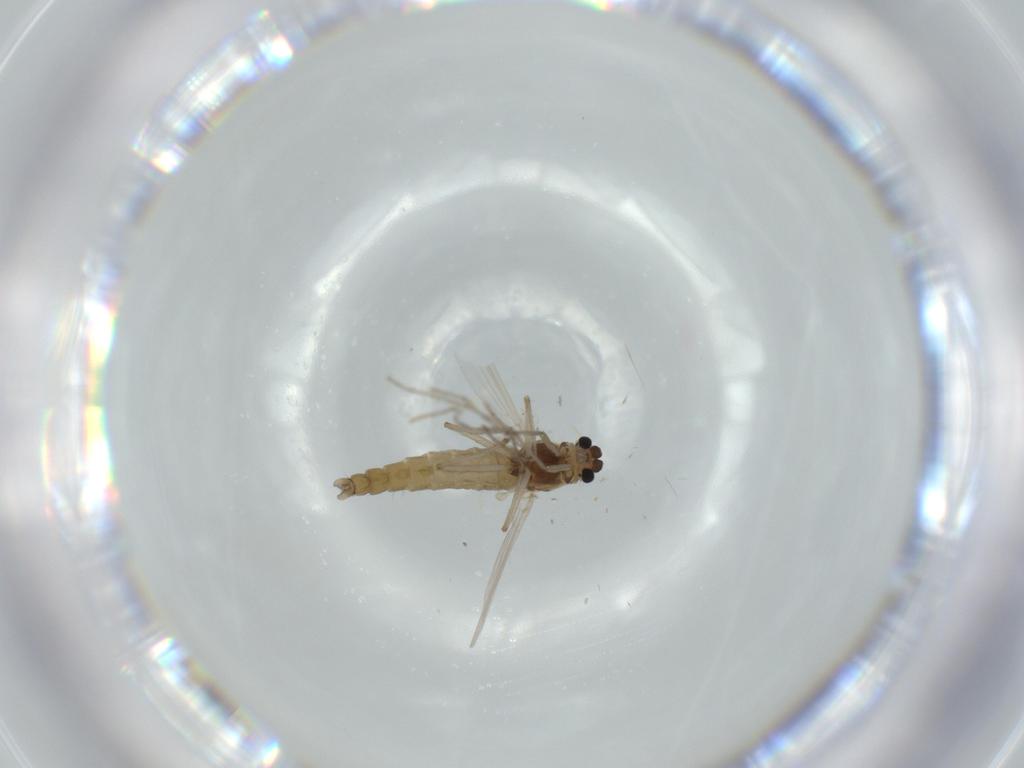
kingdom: Animalia
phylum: Arthropoda
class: Insecta
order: Diptera
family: Chironomidae
